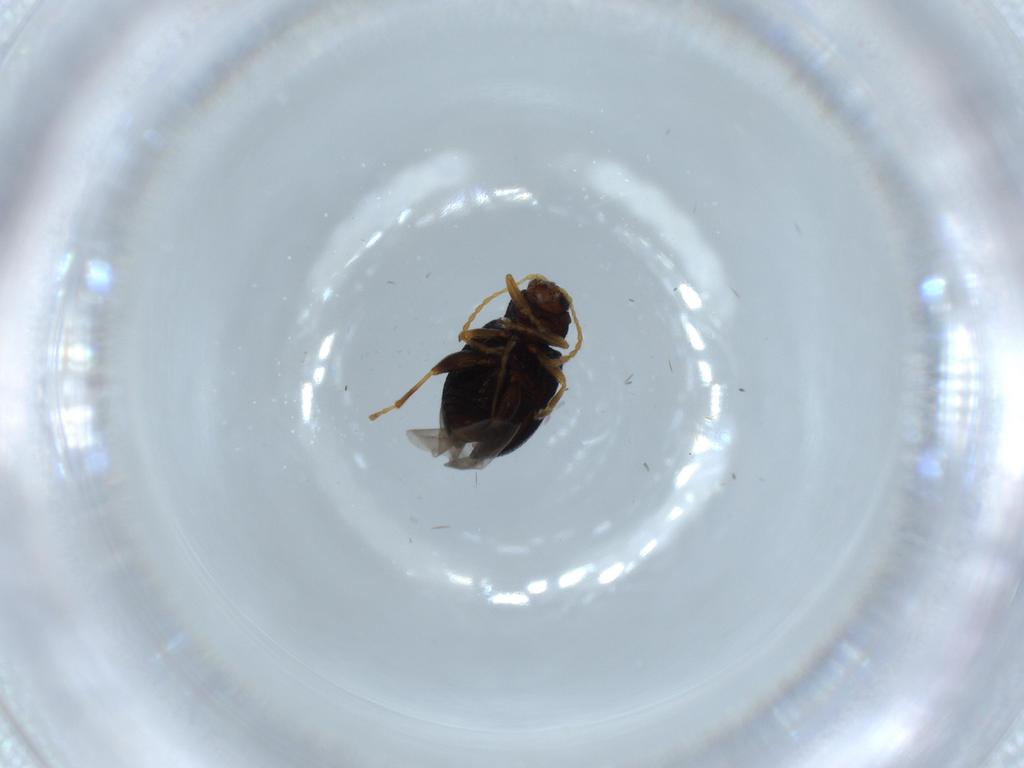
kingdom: Animalia
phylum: Arthropoda
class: Insecta
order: Coleoptera
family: Chrysomelidae
